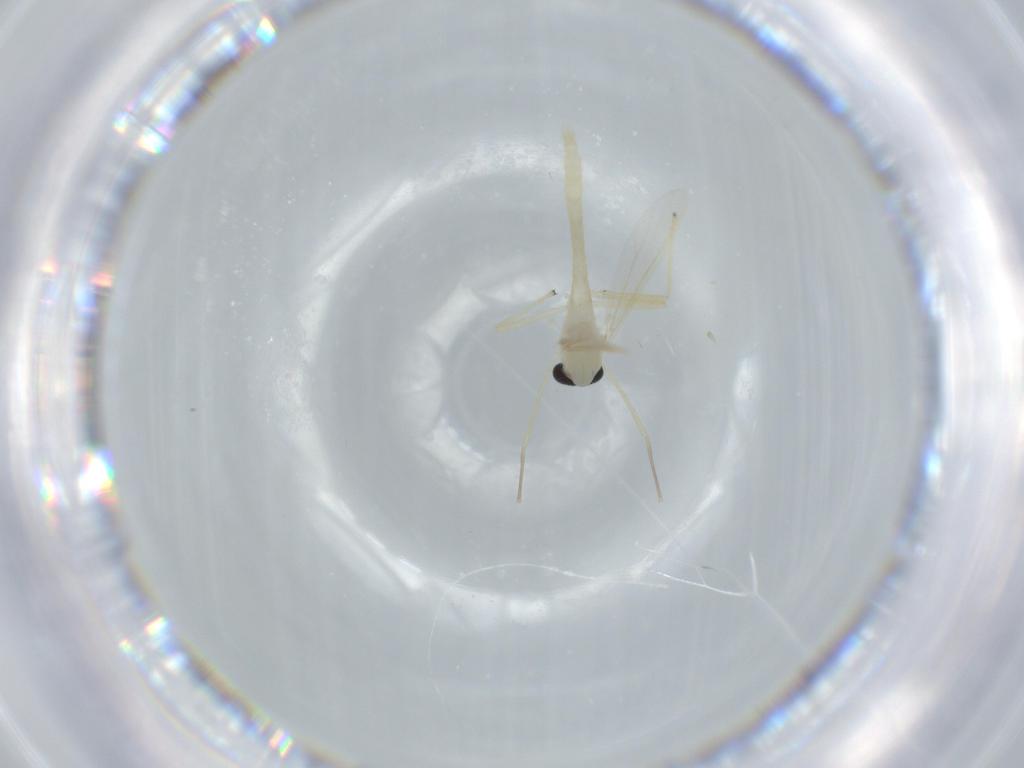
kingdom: Animalia
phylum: Arthropoda
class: Insecta
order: Diptera
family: Chironomidae
